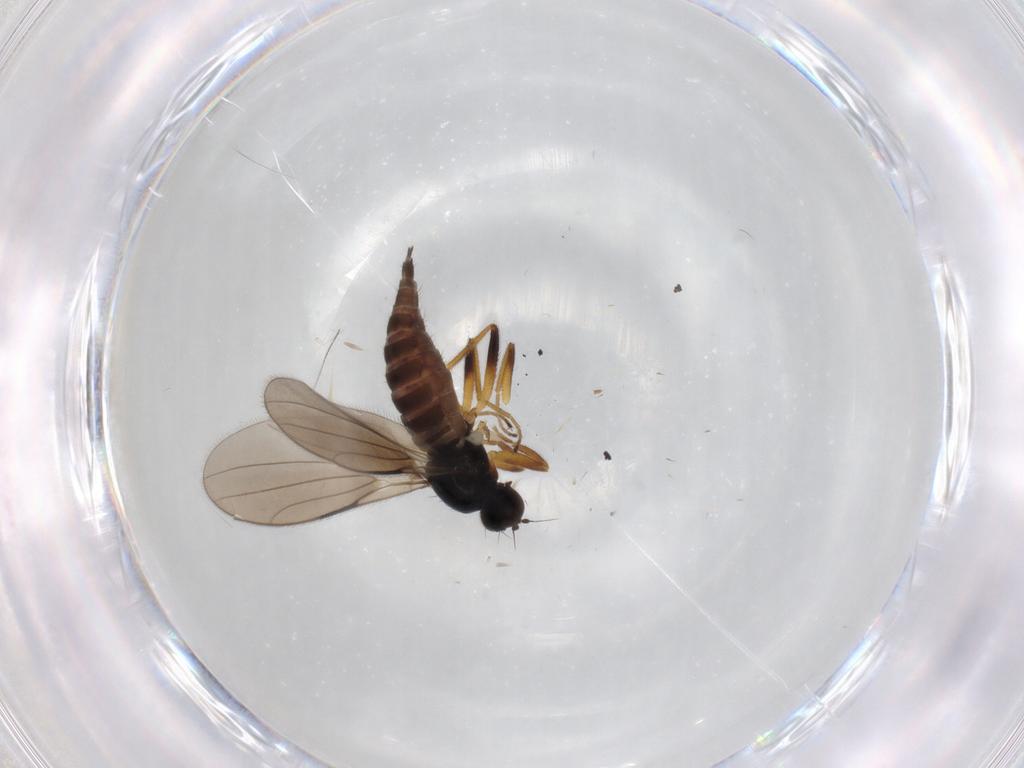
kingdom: Animalia
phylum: Arthropoda
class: Insecta
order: Diptera
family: Hybotidae
